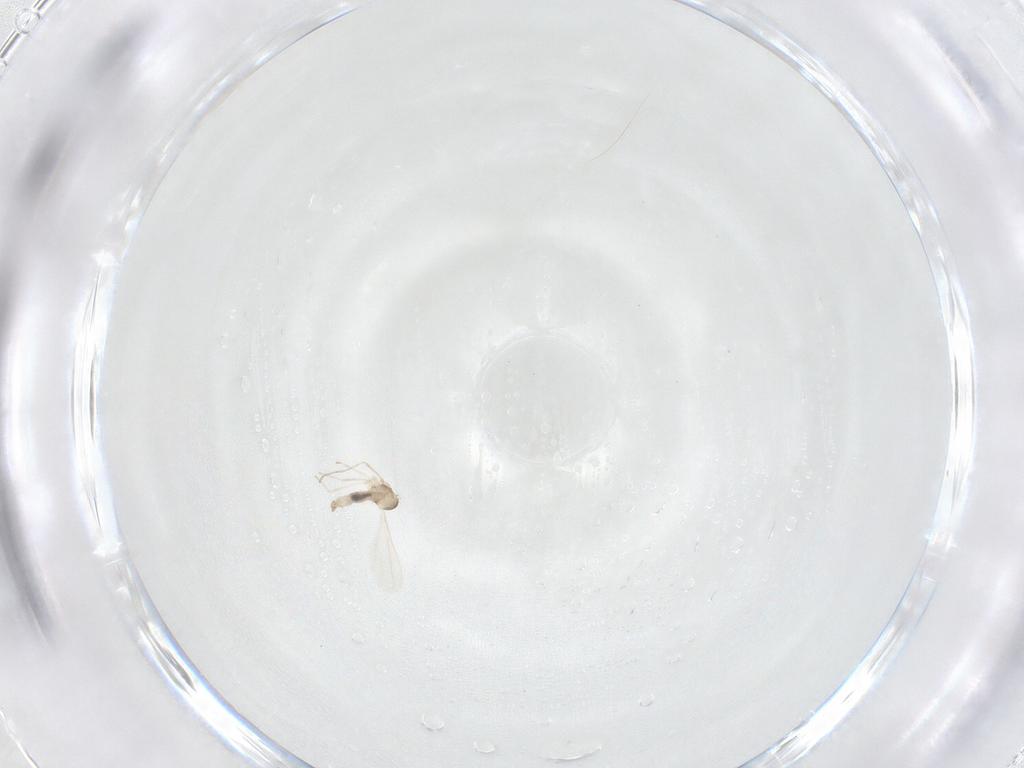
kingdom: Animalia
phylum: Arthropoda
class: Insecta
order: Diptera
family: Cecidomyiidae
